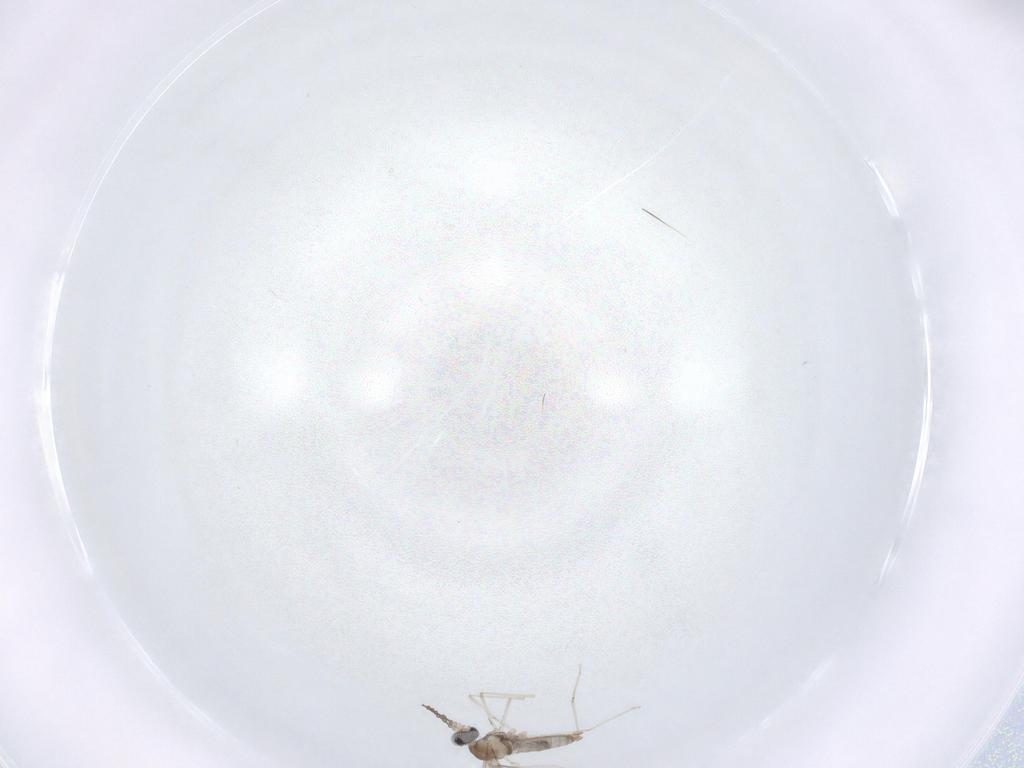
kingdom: Animalia
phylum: Arthropoda
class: Insecta
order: Diptera
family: Cecidomyiidae
